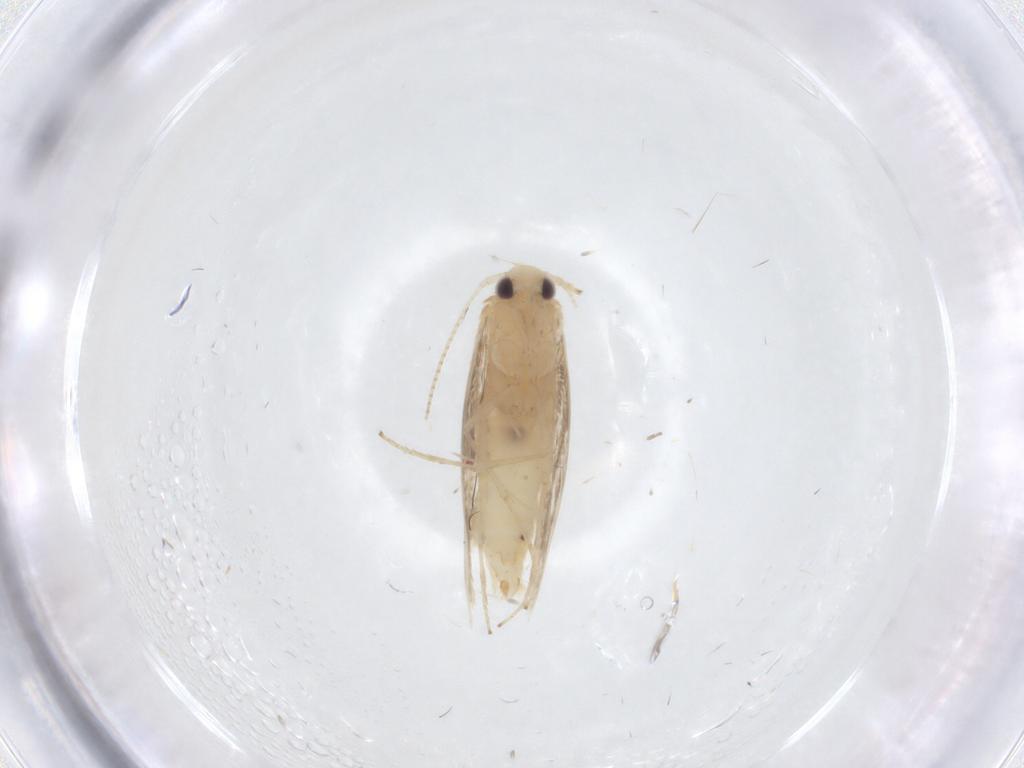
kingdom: Animalia
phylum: Arthropoda
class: Insecta
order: Lepidoptera
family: Gracillariidae
